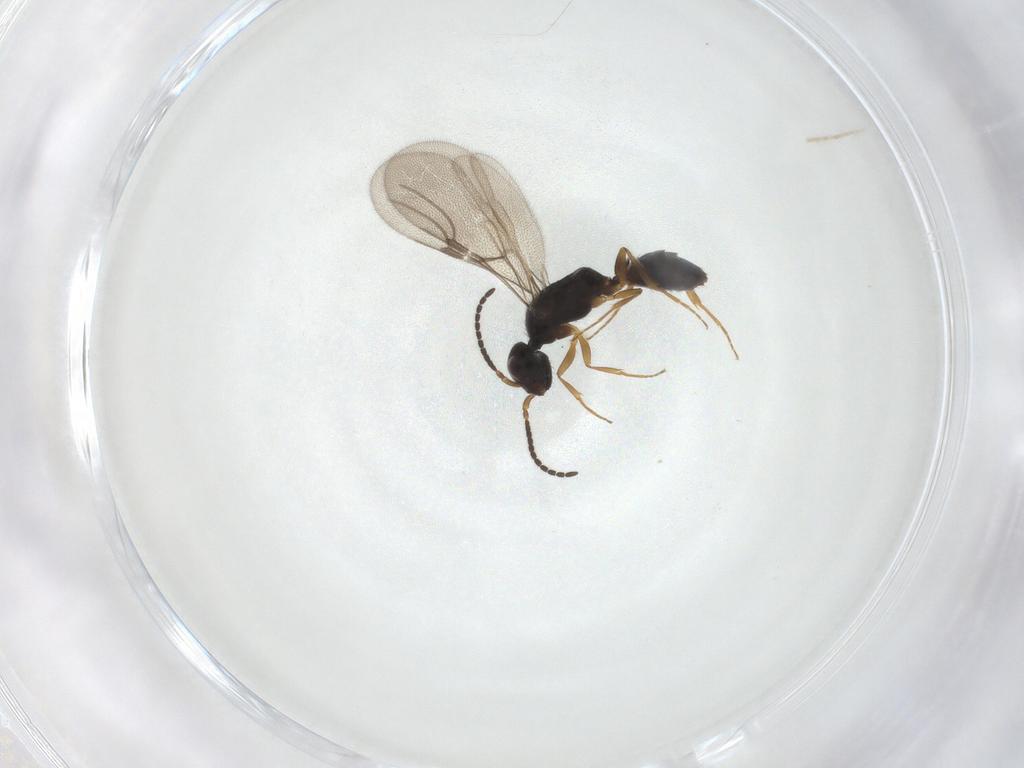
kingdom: Animalia
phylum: Arthropoda
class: Insecta
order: Hymenoptera
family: Bethylidae
